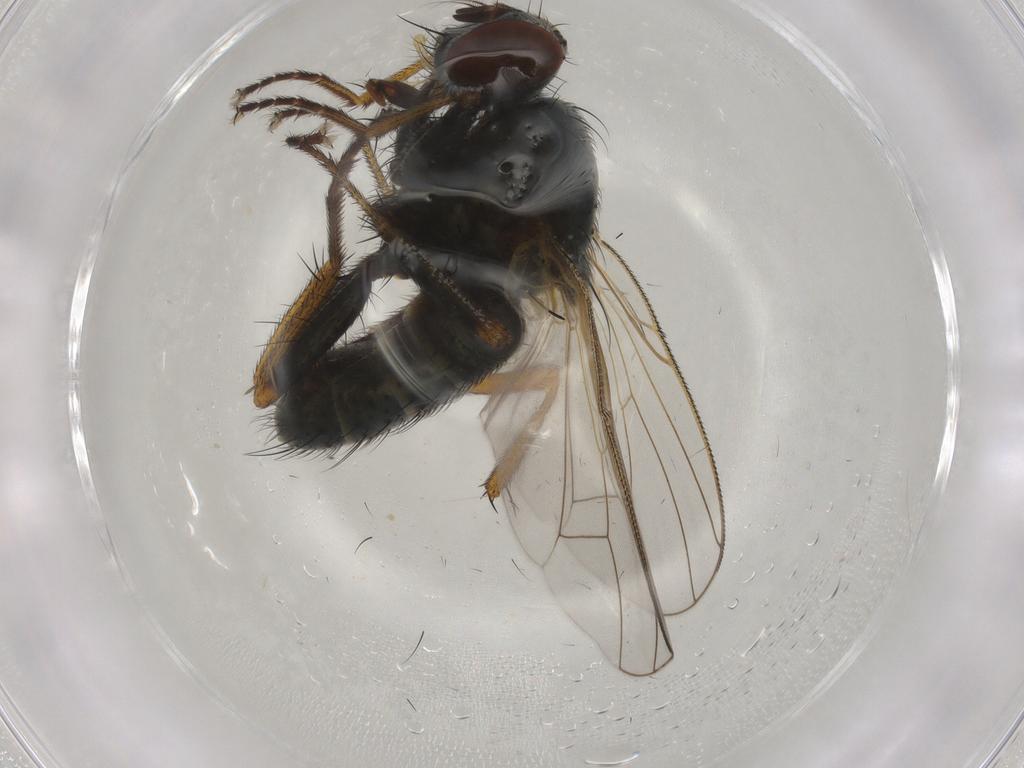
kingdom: Animalia
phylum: Arthropoda
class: Insecta
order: Diptera
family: Ceratopogonidae
